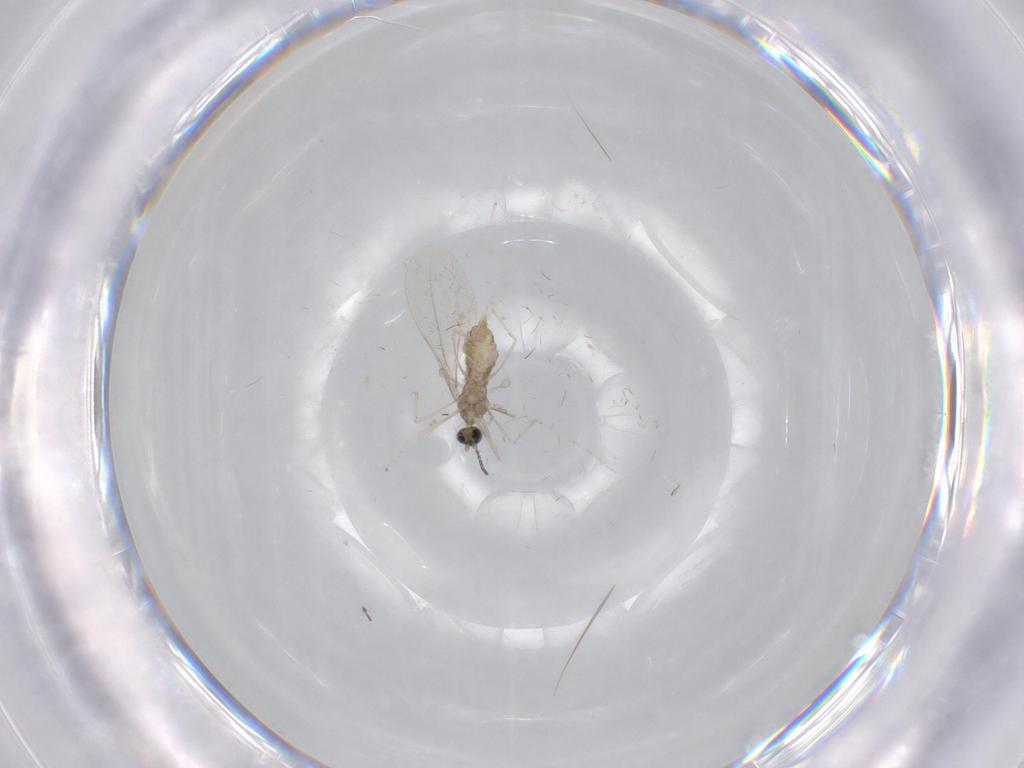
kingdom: Animalia
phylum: Arthropoda
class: Insecta
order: Diptera
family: Cecidomyiidae
